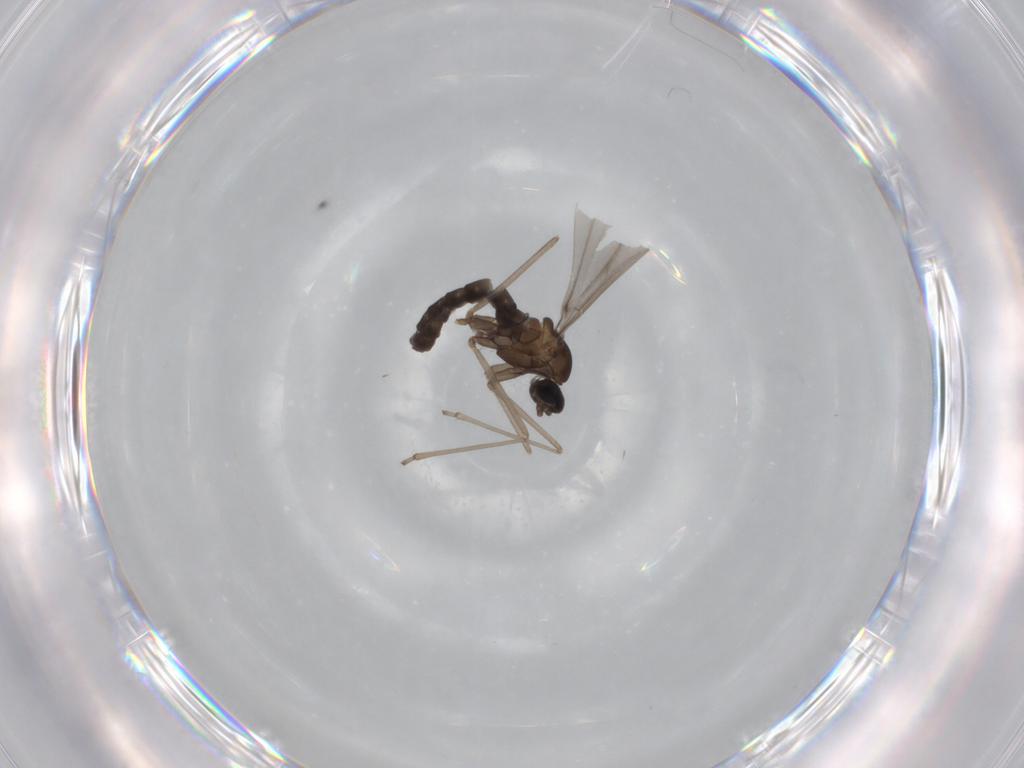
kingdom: Animalia
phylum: Arthropoda
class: Insecta
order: Diptera
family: Cecidomyiidae
